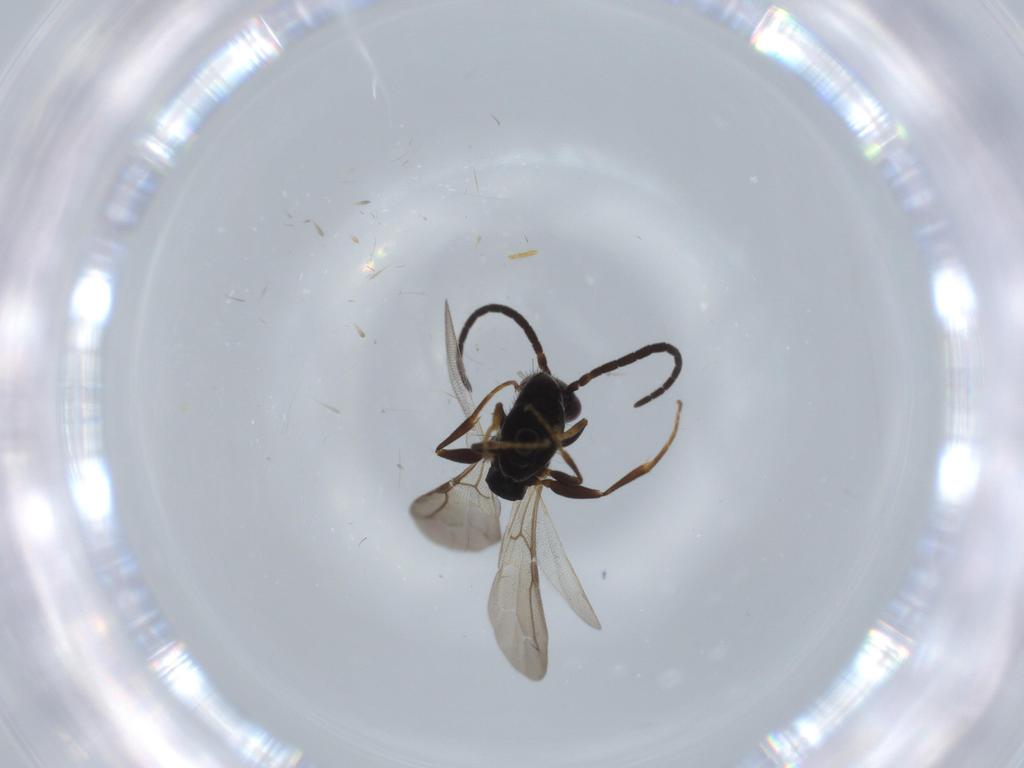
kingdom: Animalia
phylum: Arthropoda
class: Insecta
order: Hymenoptera
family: Bethylidae
